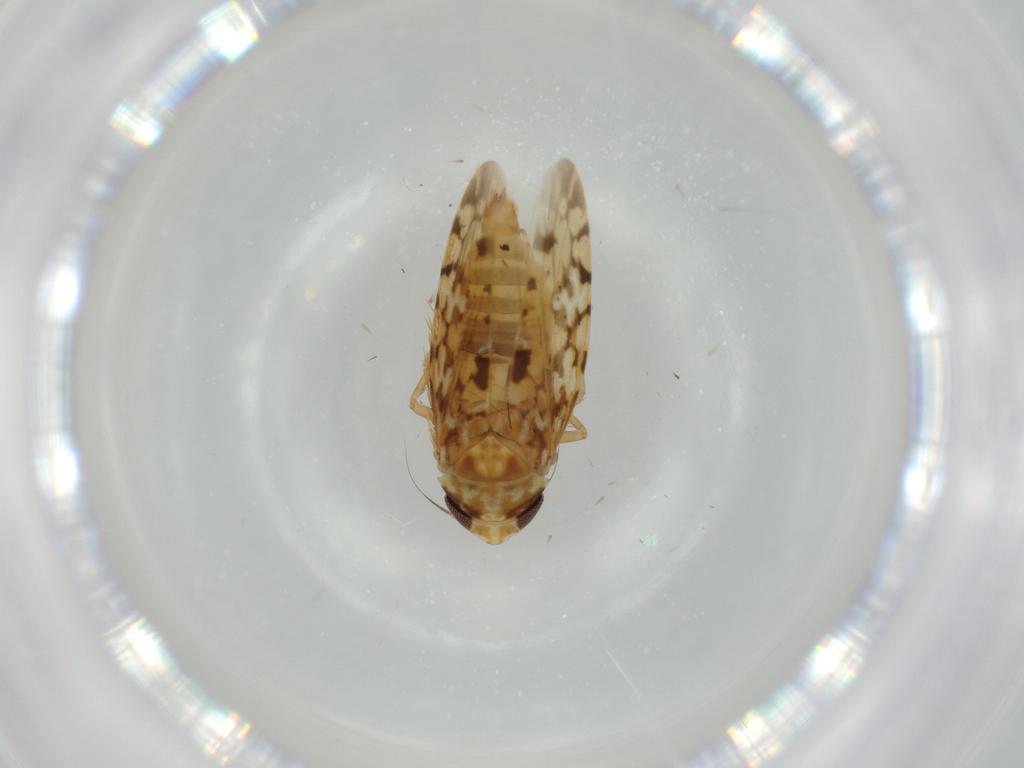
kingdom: Animalia
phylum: Arthropoda
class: Insecta
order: Hemiptera
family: Cicadellidae
